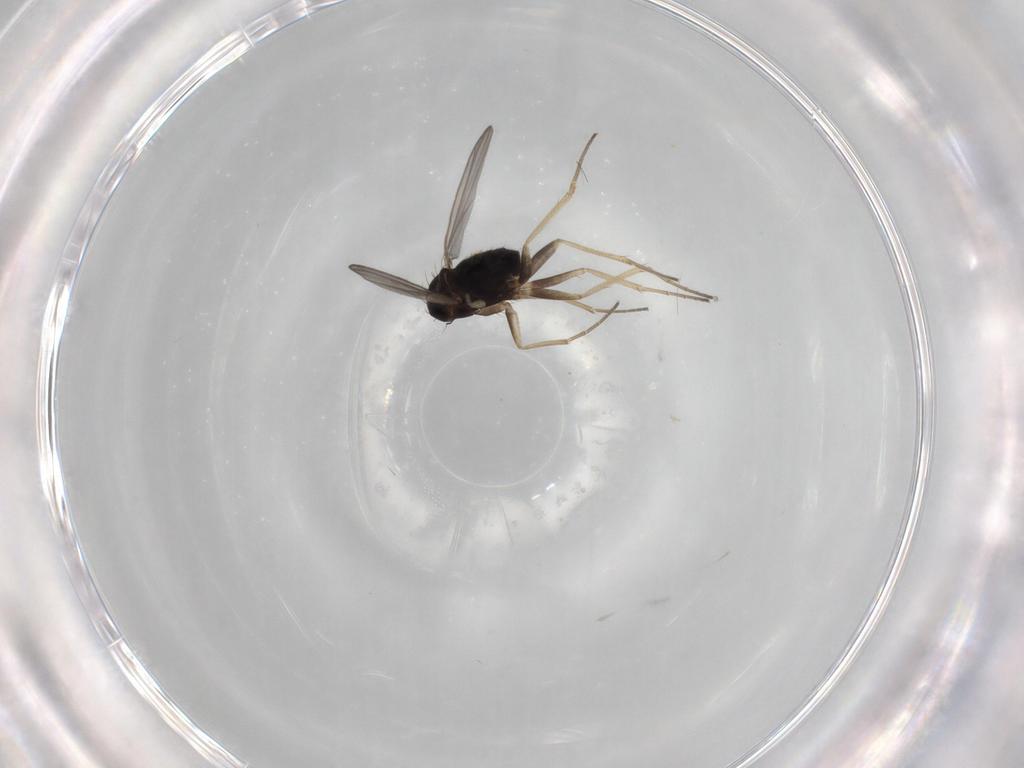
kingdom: Animalia
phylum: Arthropoda
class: Insecta
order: Diptera
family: Dolichopodidae
